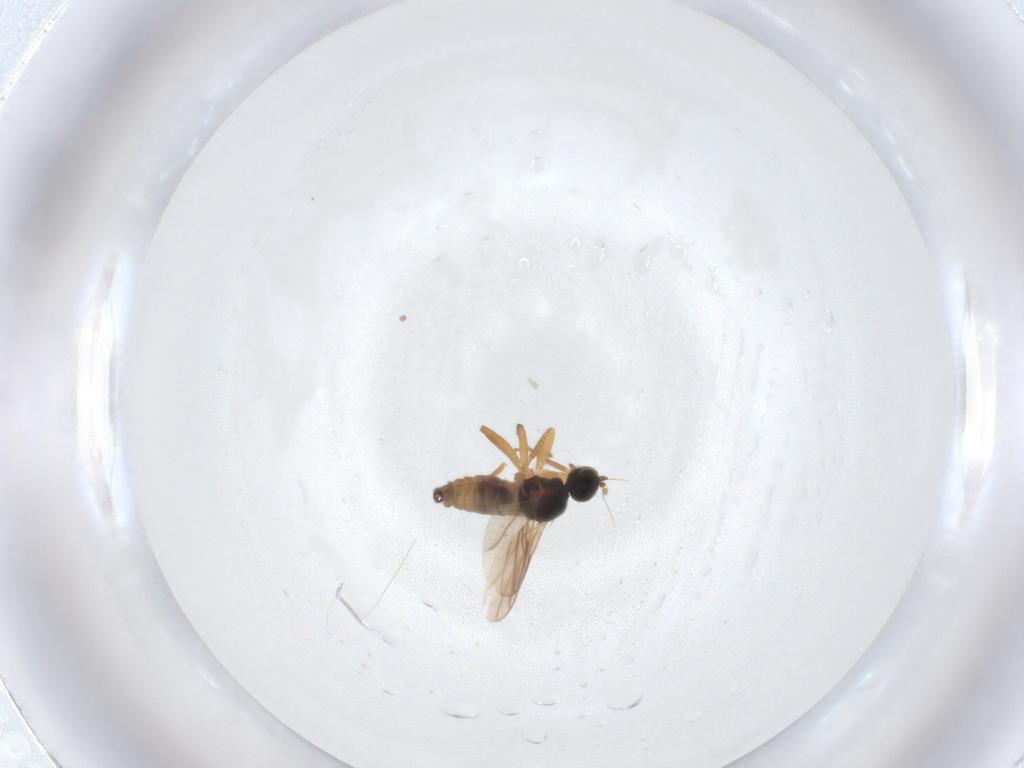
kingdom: Animalia
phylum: Arthropoda
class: Insecta
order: Diptera
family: Hybotidae
